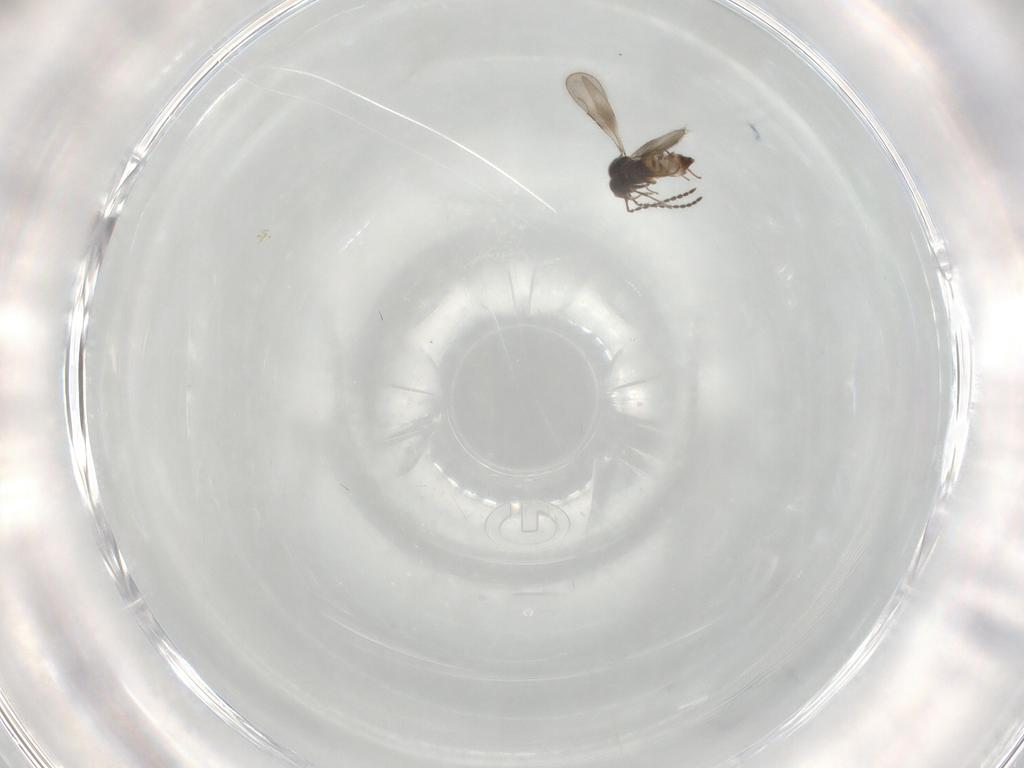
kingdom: Animalia
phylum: Arthropoda
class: Insecta
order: Hymenoptera
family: Ceraphronidae
